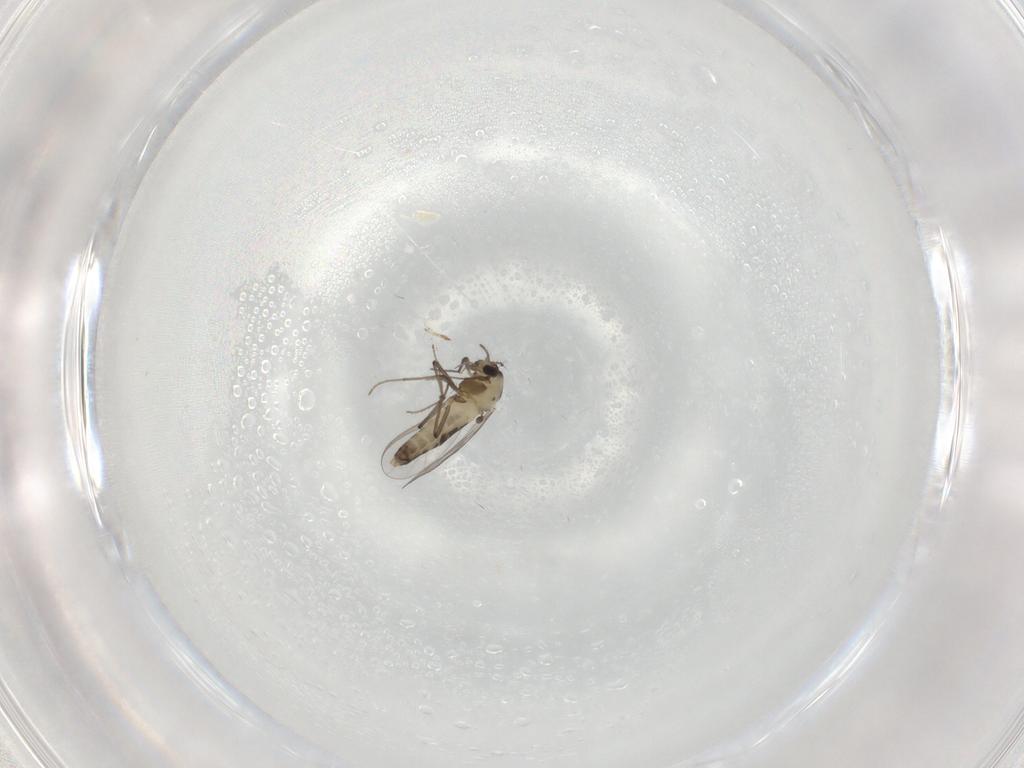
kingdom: Animalia
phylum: Arthropoda
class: Insecta
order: Diptera
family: Chironomidae
